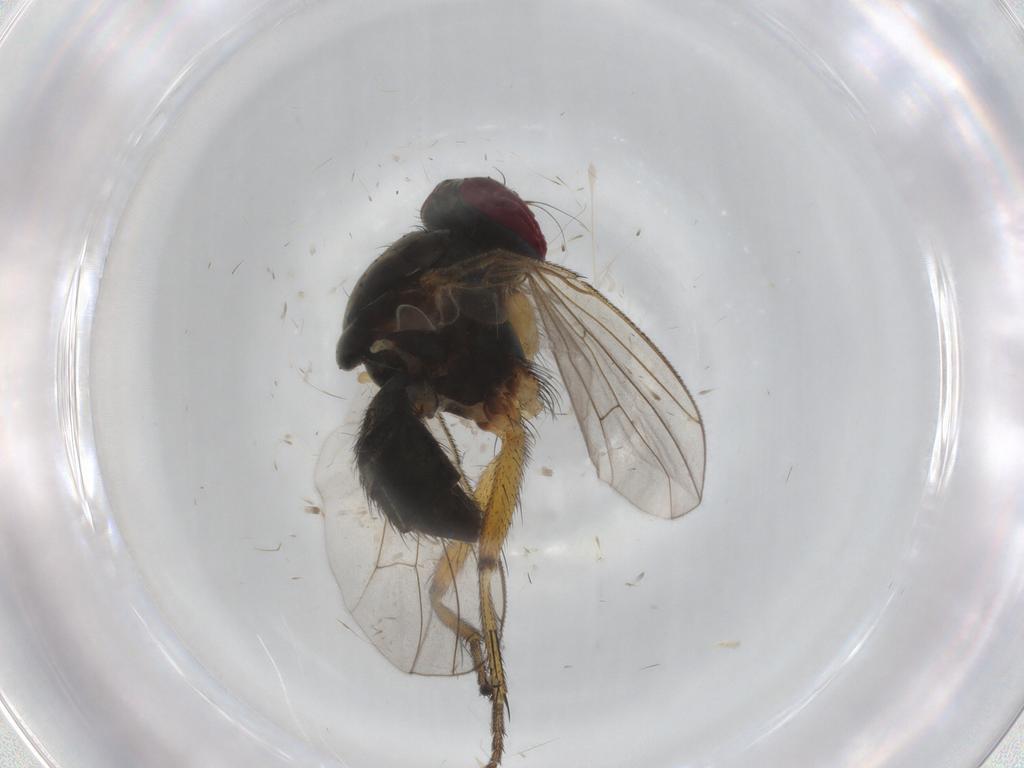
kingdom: Animalia
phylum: Arthropoda
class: Insecta
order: Diptera
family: Muscidae
